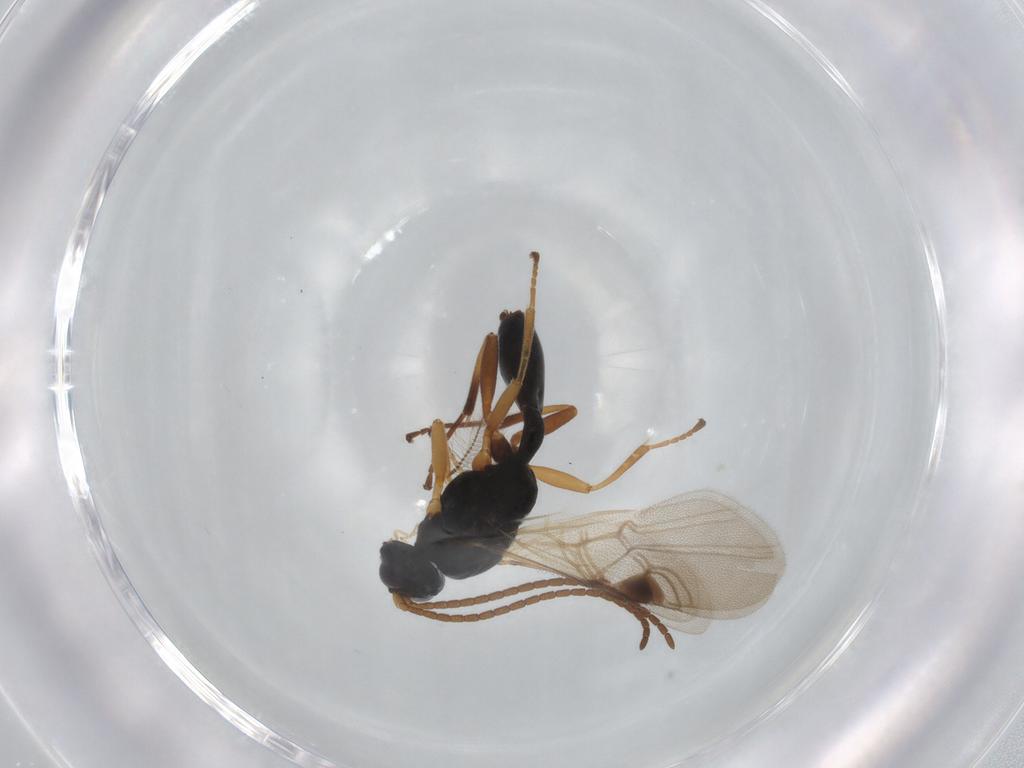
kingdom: Animalia
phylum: Arthropoda
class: Insecta
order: Hymenoptera
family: Braconidae
